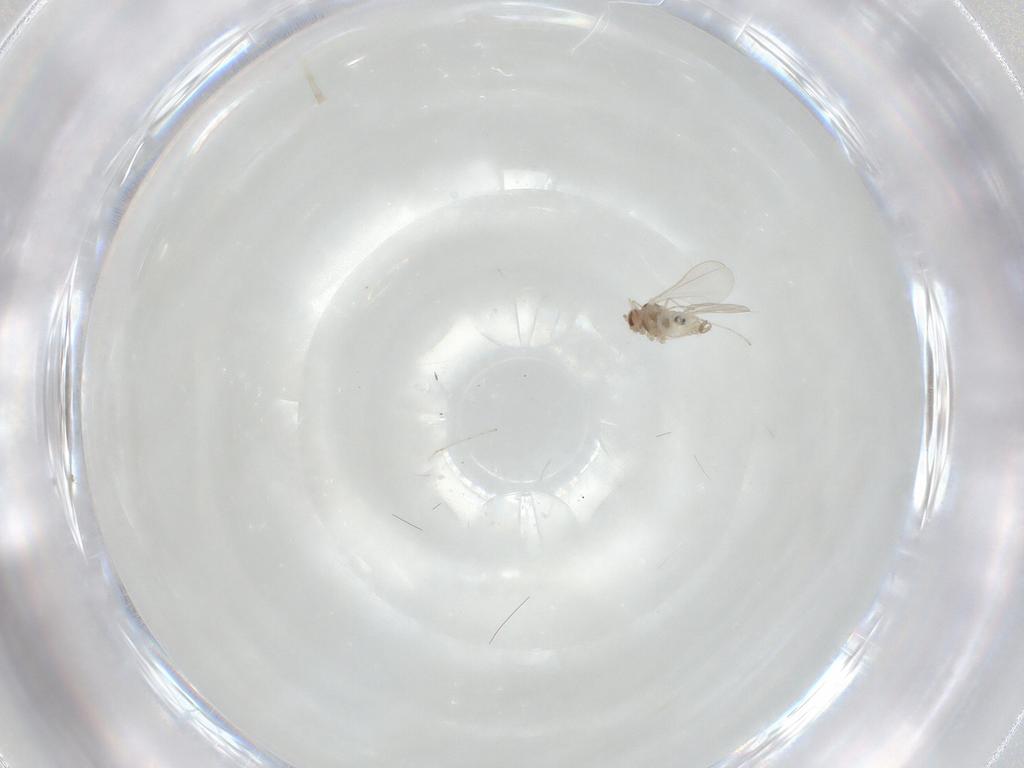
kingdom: Animalia
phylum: Arthropoda
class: Insecta
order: Diptera
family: Cecidomyiidae
